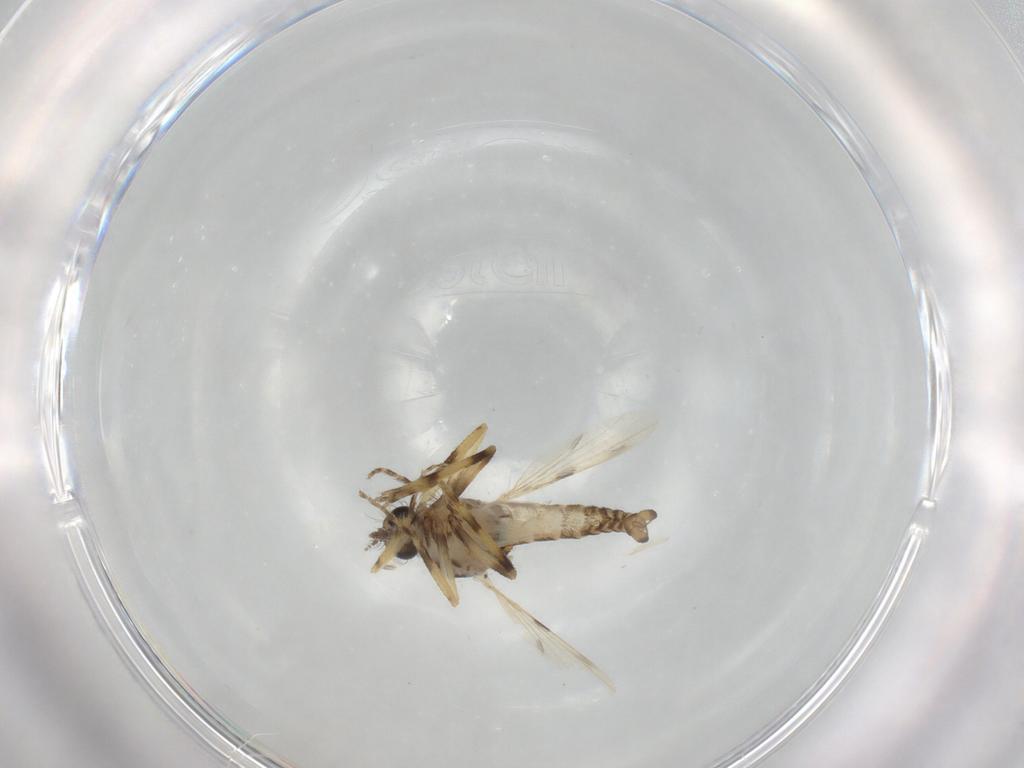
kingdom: Animalia
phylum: Arthropoda
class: Insecta
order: Diptera
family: Ceratopogonidae
